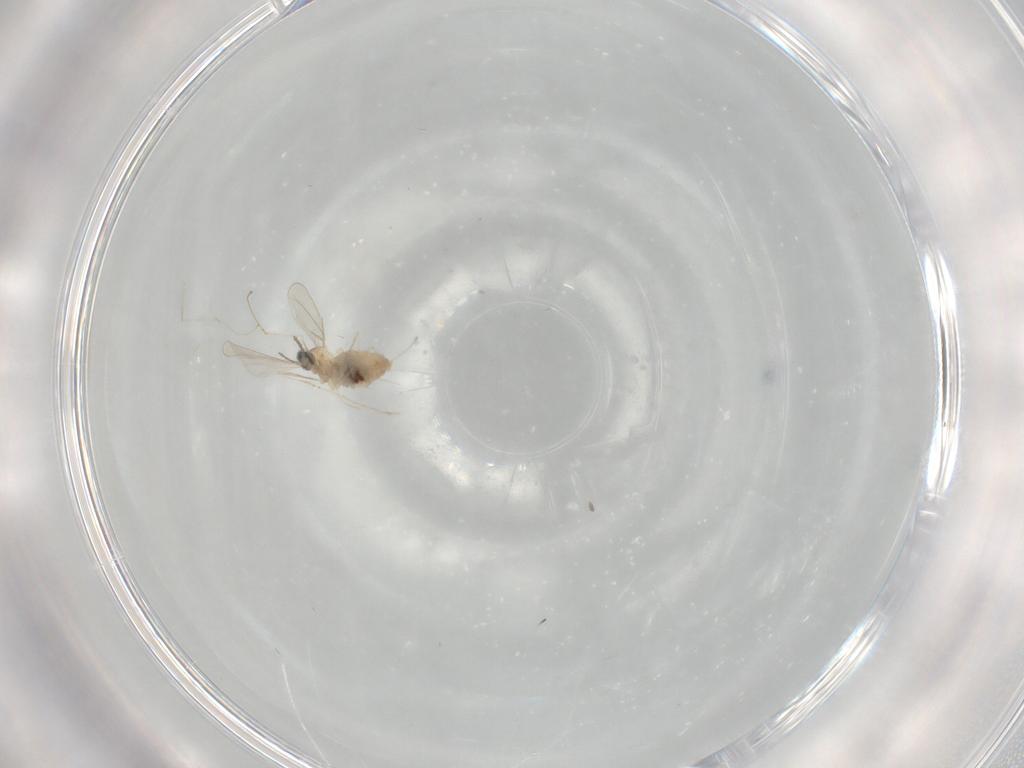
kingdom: Animalia
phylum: Arthropoda
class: Insecta
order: Diptera
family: Cecidomyiidae
